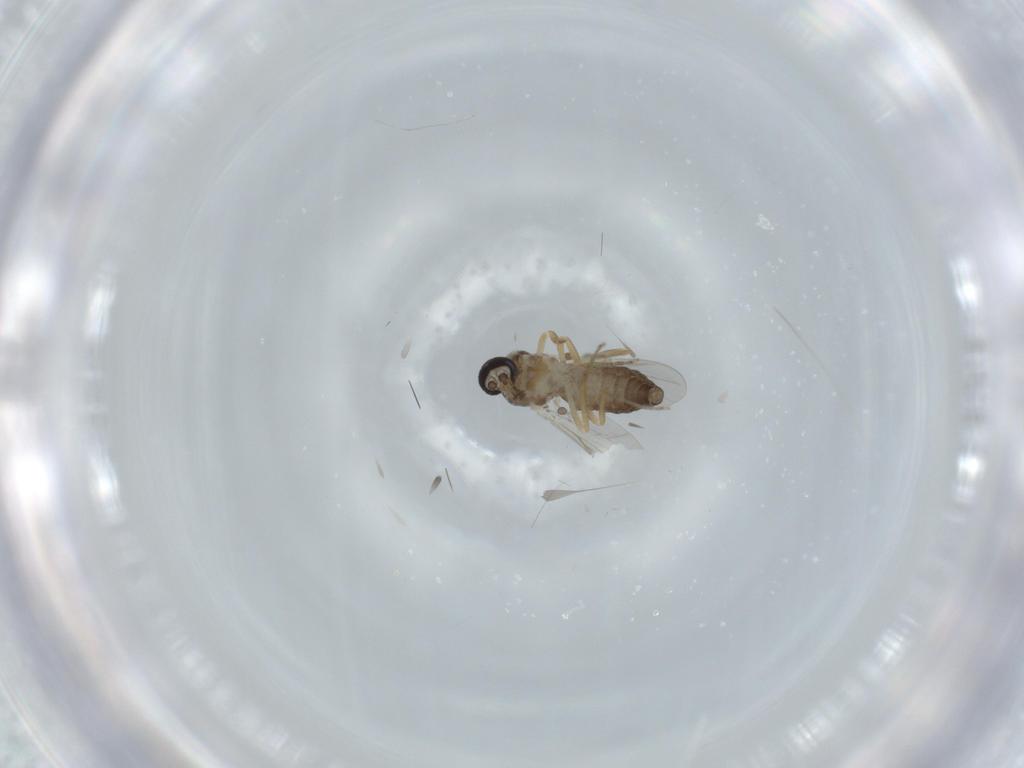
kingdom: Animalia
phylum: Arthropoda
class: Insecta
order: Diptera
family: Ceratopogonidae
